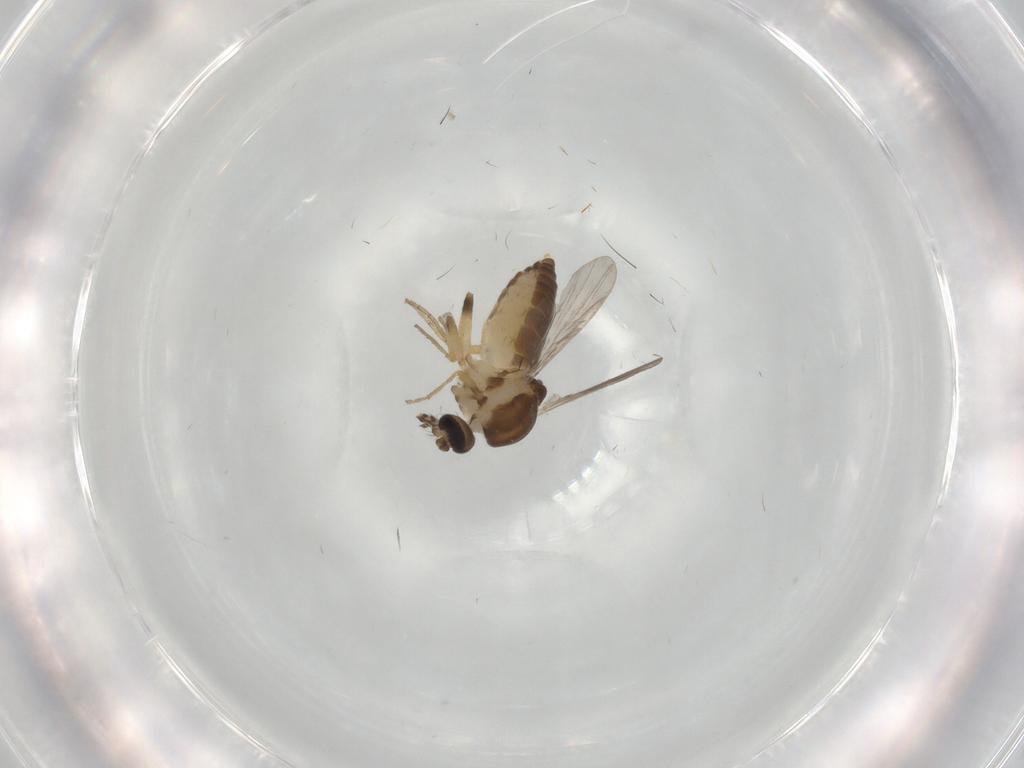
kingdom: Animalia
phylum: Arthropoda
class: Insecta
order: Diptera
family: Ceratopogonidae
